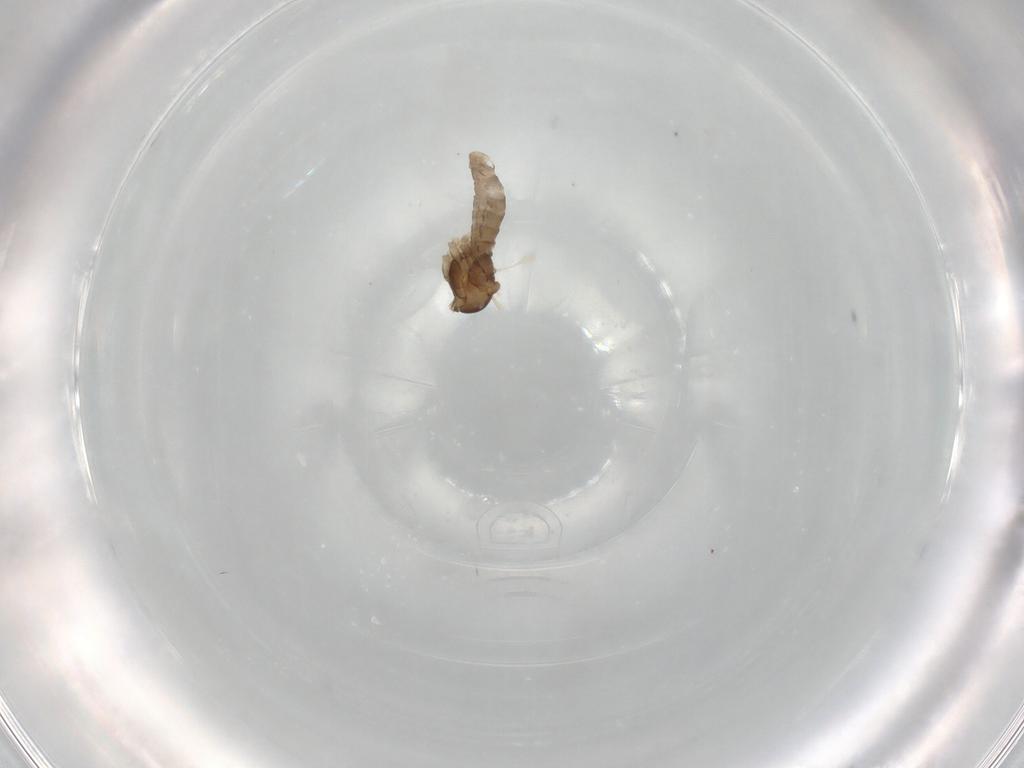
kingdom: Animalia
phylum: Arthropoda
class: Insecta
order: Diptera
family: Cecidomyiidae
